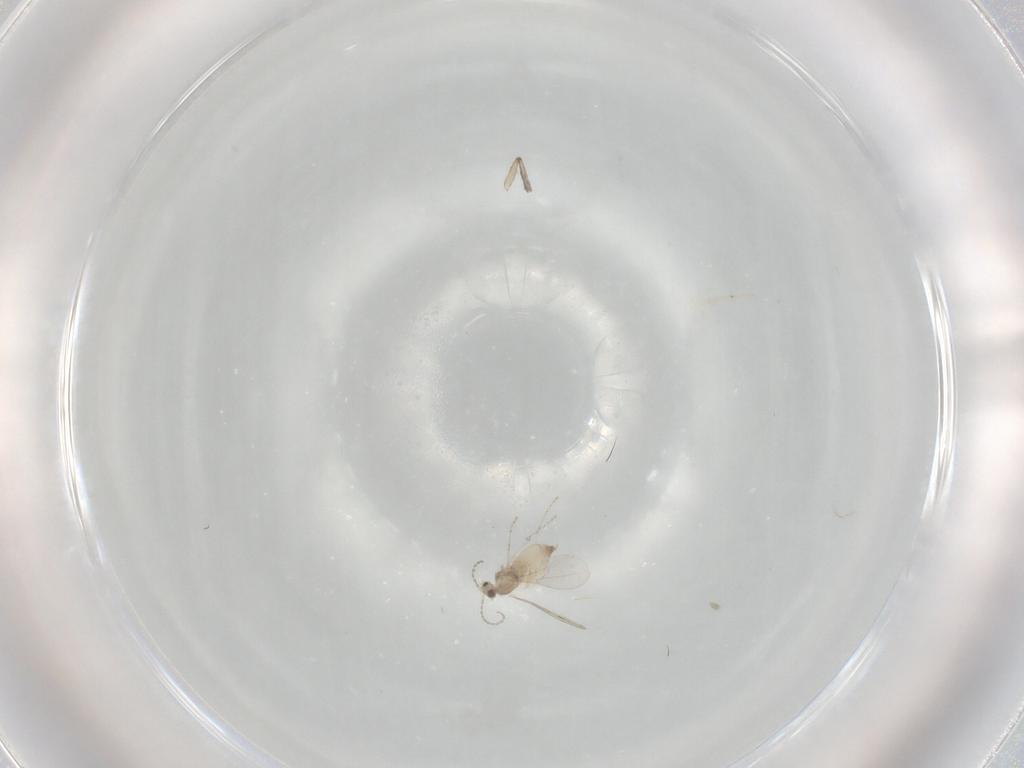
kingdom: Animalia
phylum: Arthropoda
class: Insecta
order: Diptera
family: Cecidomyiidae
